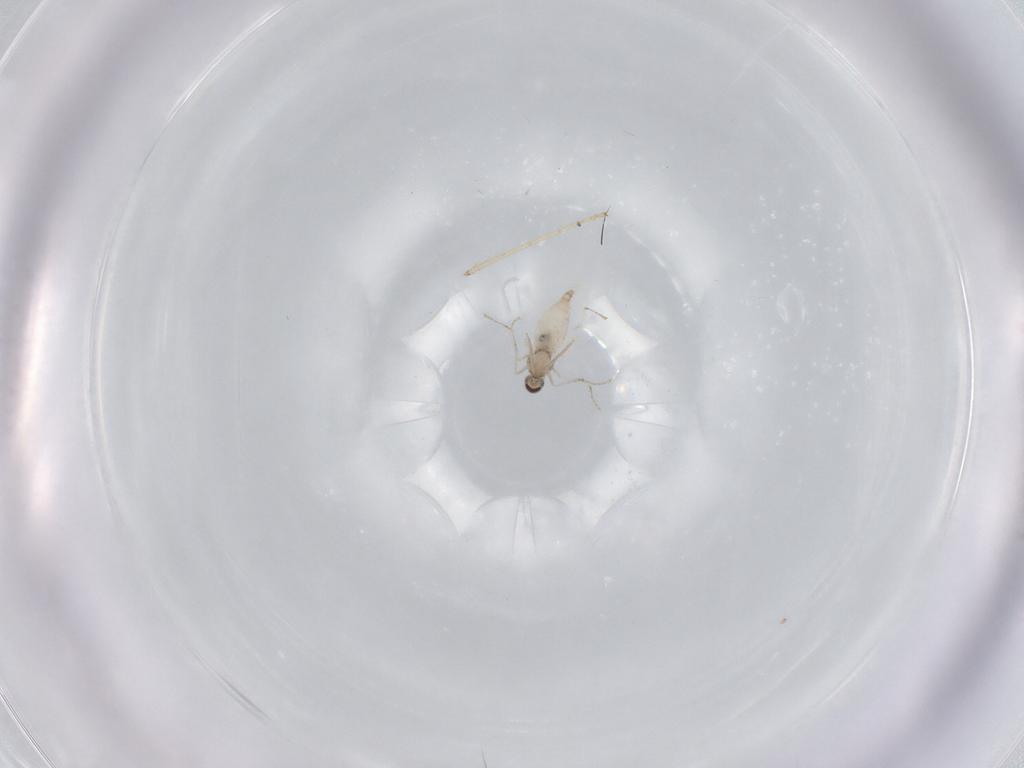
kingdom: Animalia
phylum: Arthropoda
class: Insecta
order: Diptera
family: Cecidomyiidae
